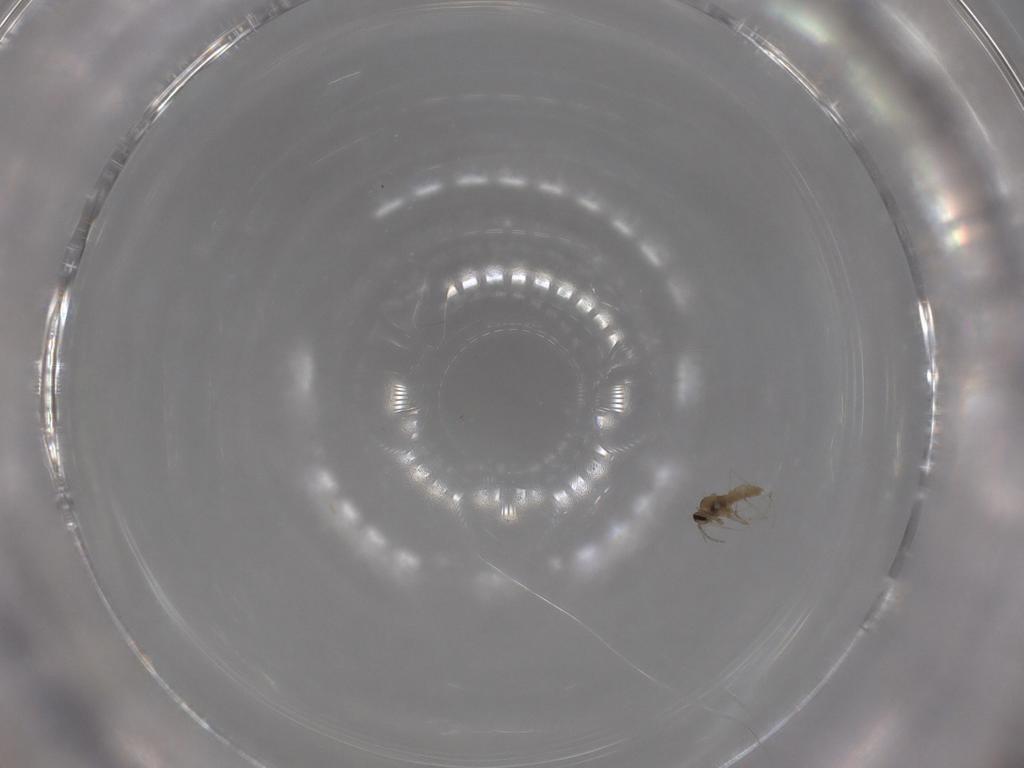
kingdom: Animalia
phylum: Arthropoda
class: Insecta
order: Diptera
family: Cecidomyiidae
